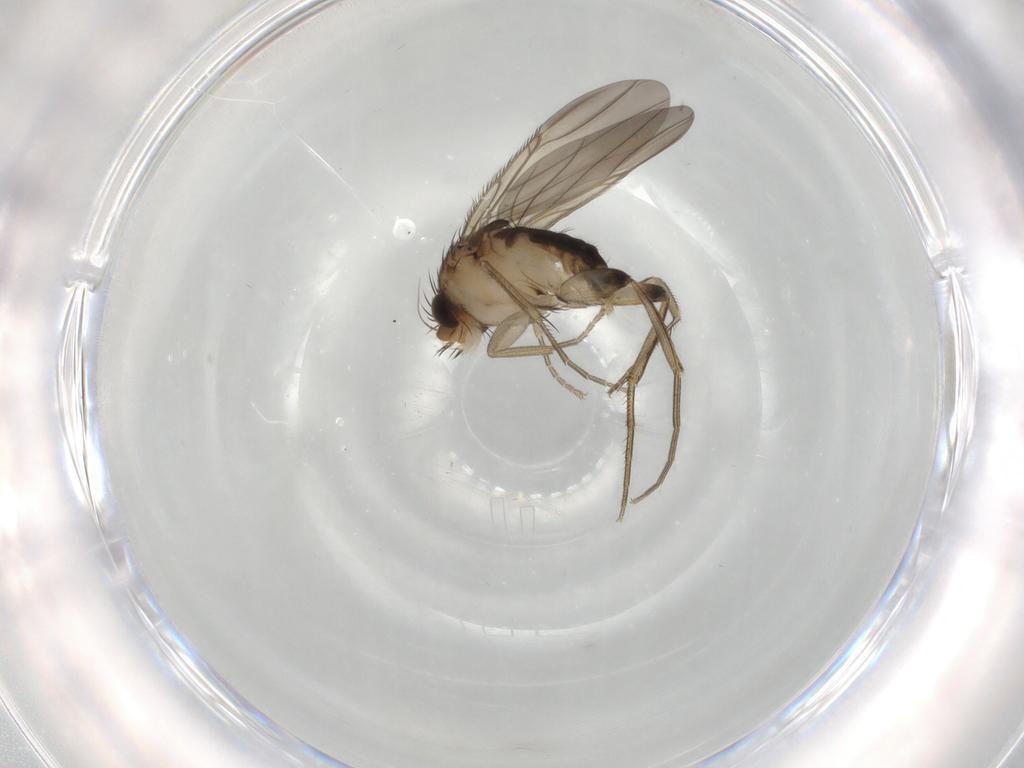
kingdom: Animalia
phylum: Arthropoda
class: Insecta
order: Diptera
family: Phoridae
